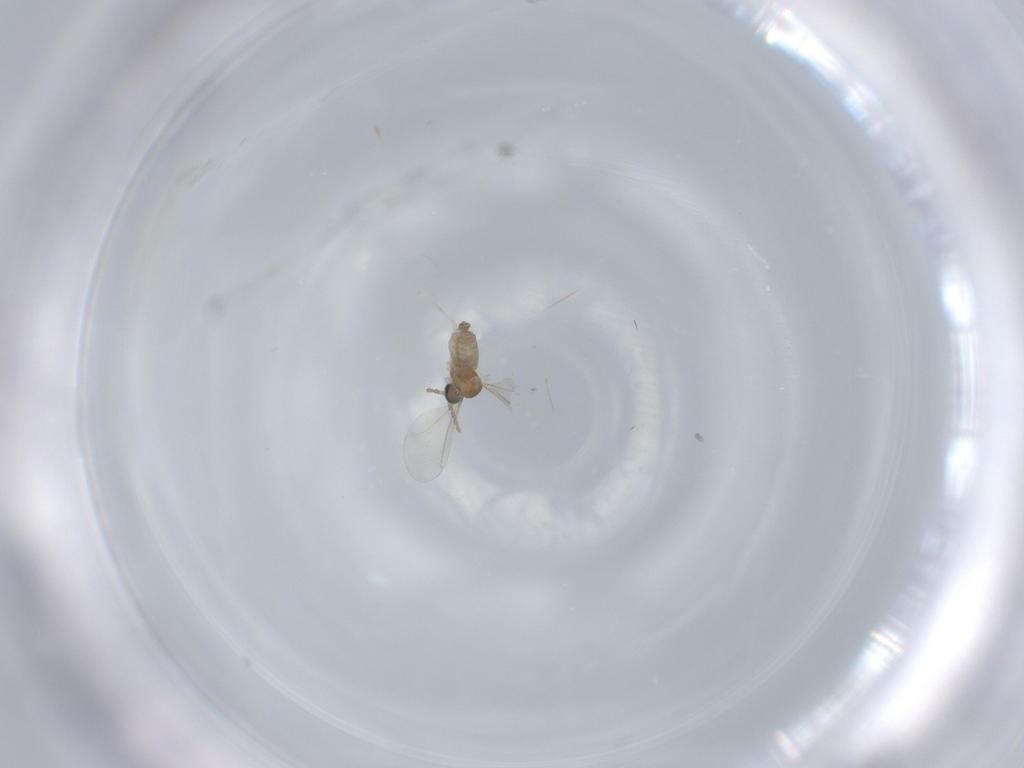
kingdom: Animalia
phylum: Arthropoda
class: Insecta
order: Diptera
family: Cecidomyiidae
